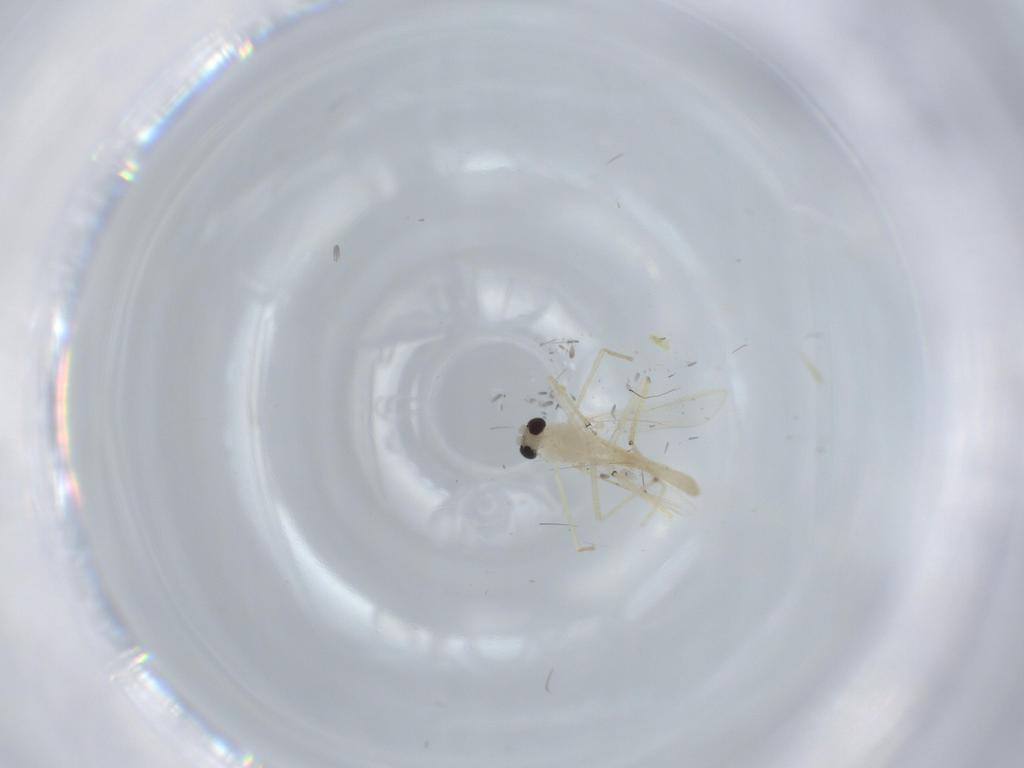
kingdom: Animalia
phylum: Arthropoda
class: Insecta
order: Diptera
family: Chironomidae
